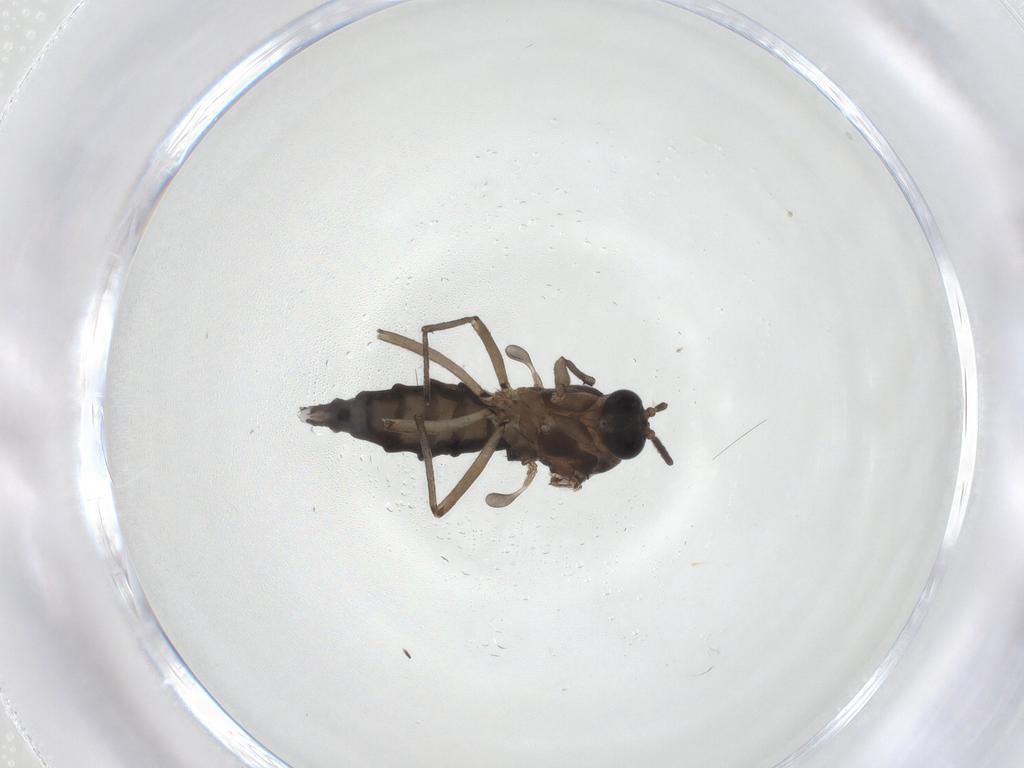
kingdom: Animalia
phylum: Arthropoda
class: Insecta
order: Diptera
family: Sciaridae
